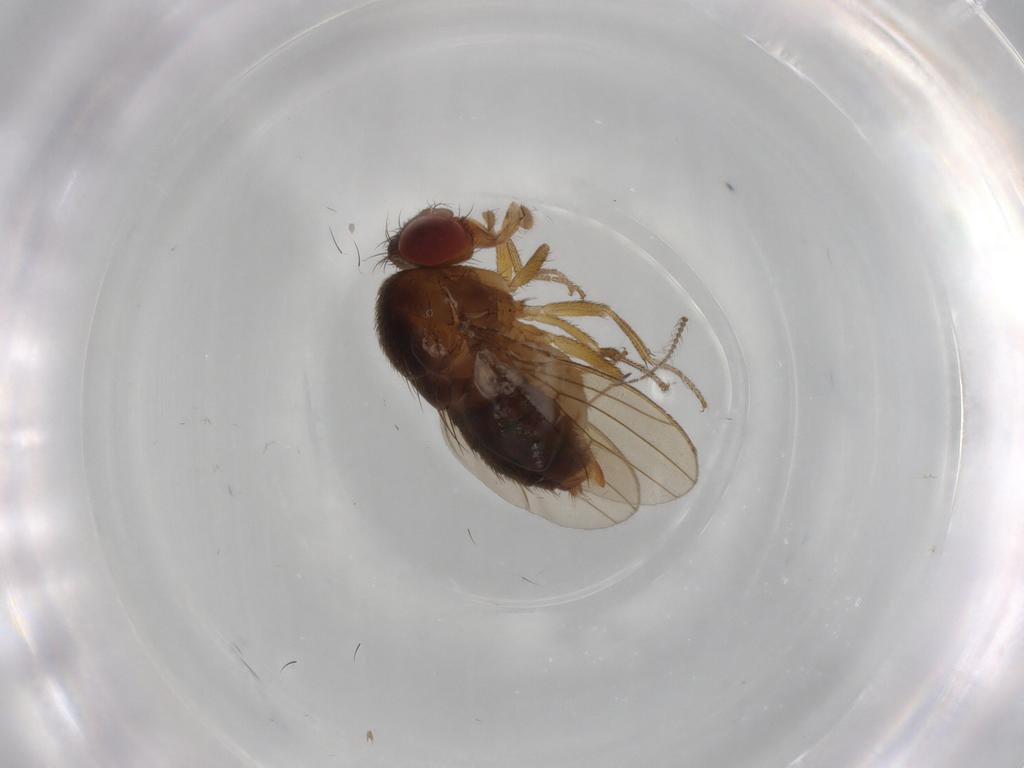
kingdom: Animalia
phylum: Arthropoda
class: Insecta
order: Diptera
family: Drosophilidae
